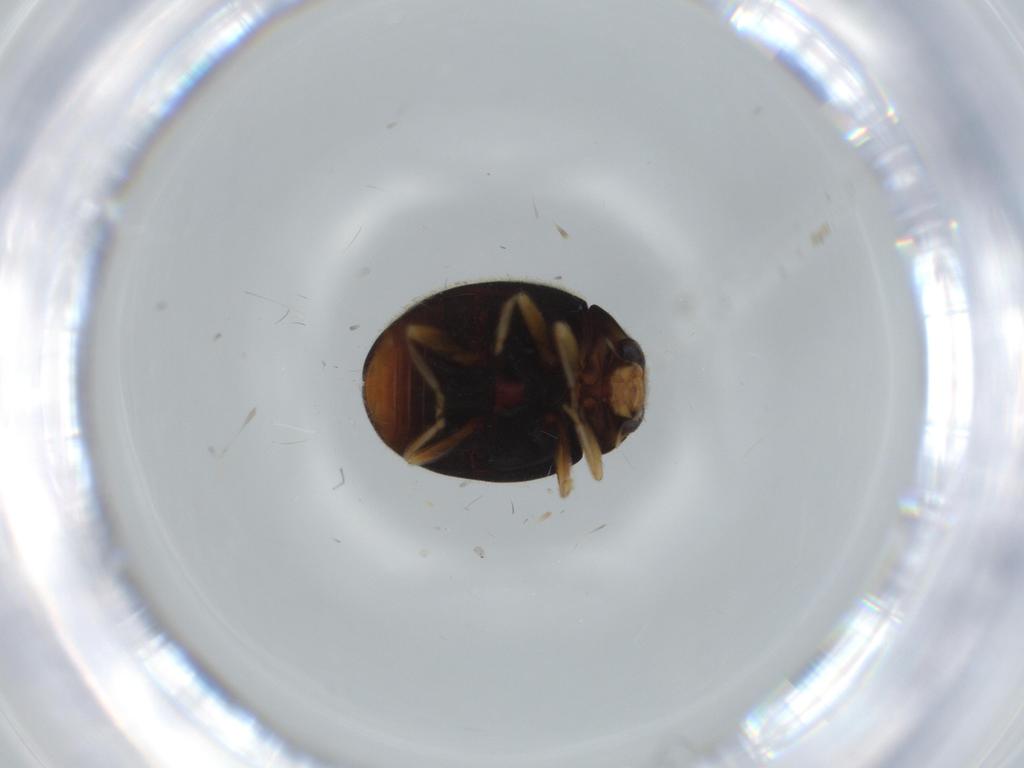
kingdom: Animalia
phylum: Arthropoda
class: Insecta
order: Coleoptera
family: Coccinellidae
